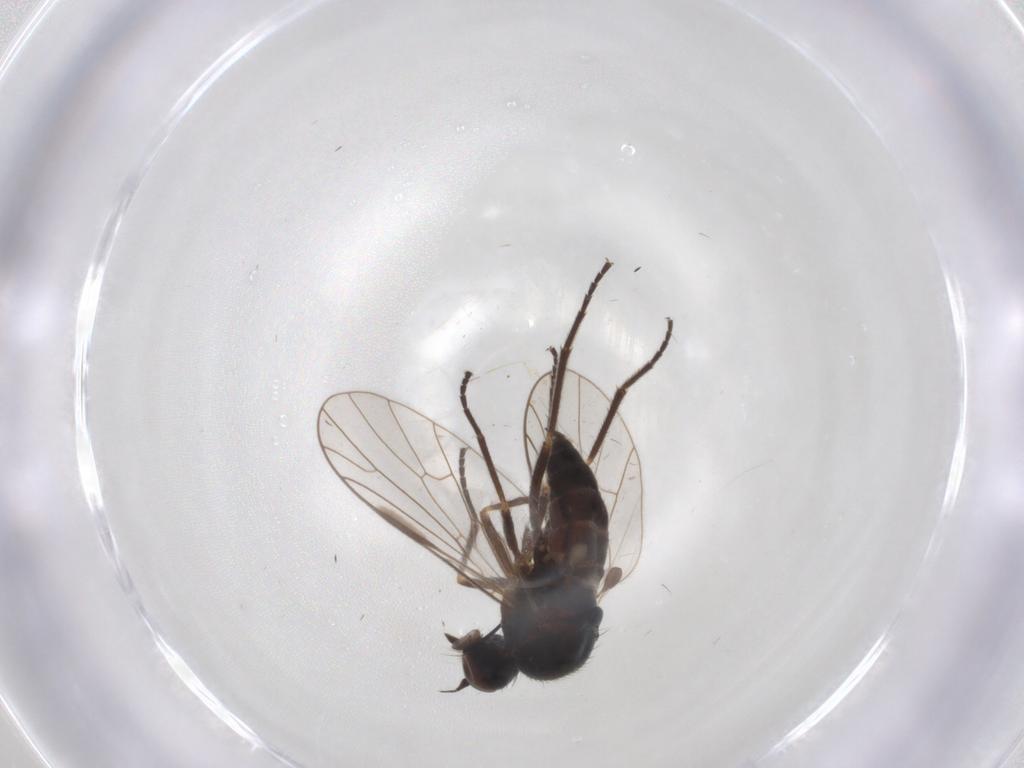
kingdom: Animalia
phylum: Arthropoda
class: Insecta
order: Diptera
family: Empididae
